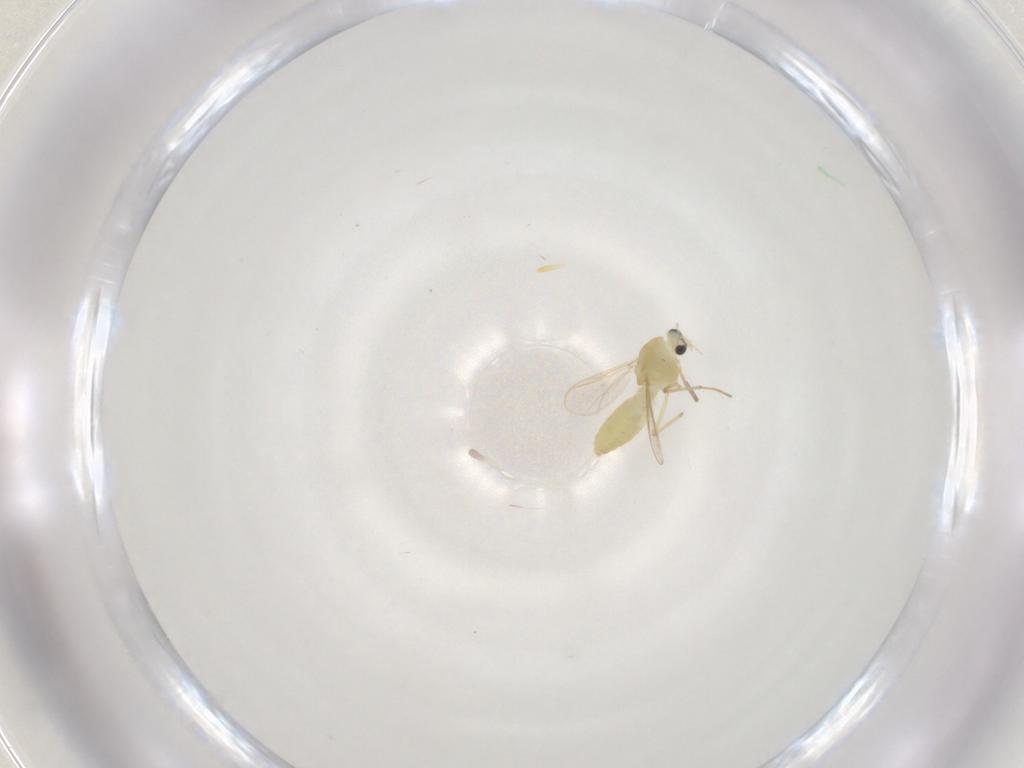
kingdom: Animalia
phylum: Arthropoda
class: Insecta
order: Diptera
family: Chironomidae
